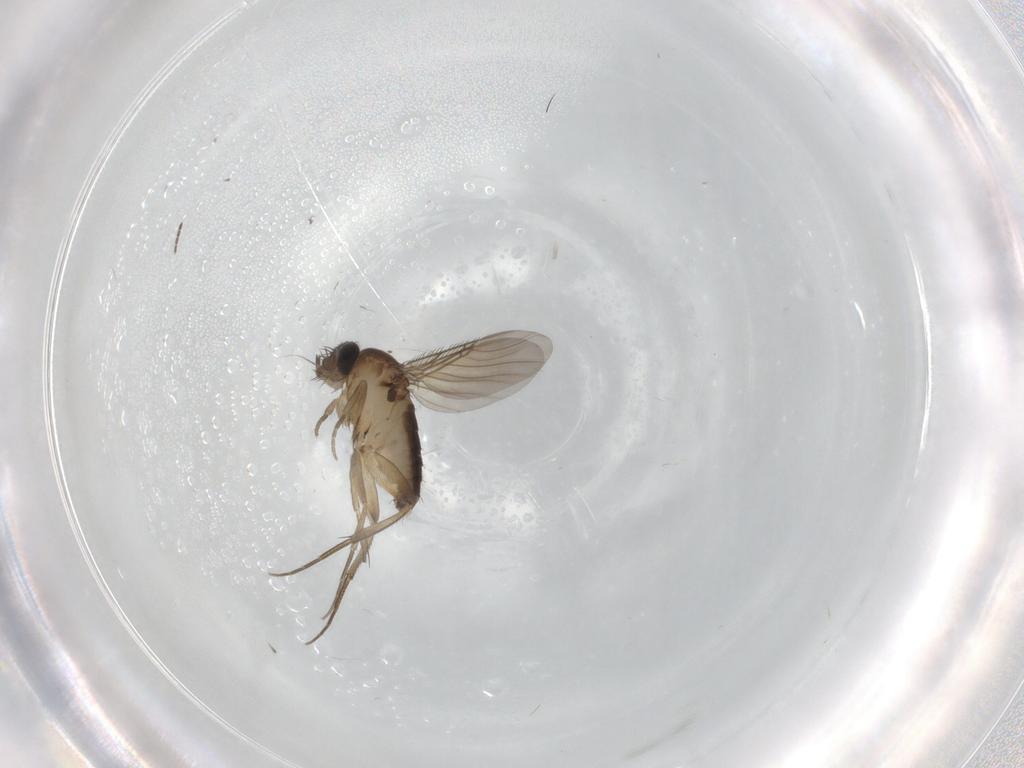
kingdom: Animalia
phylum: Arthropoda
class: Insecta
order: Diptera
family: Phoridae
